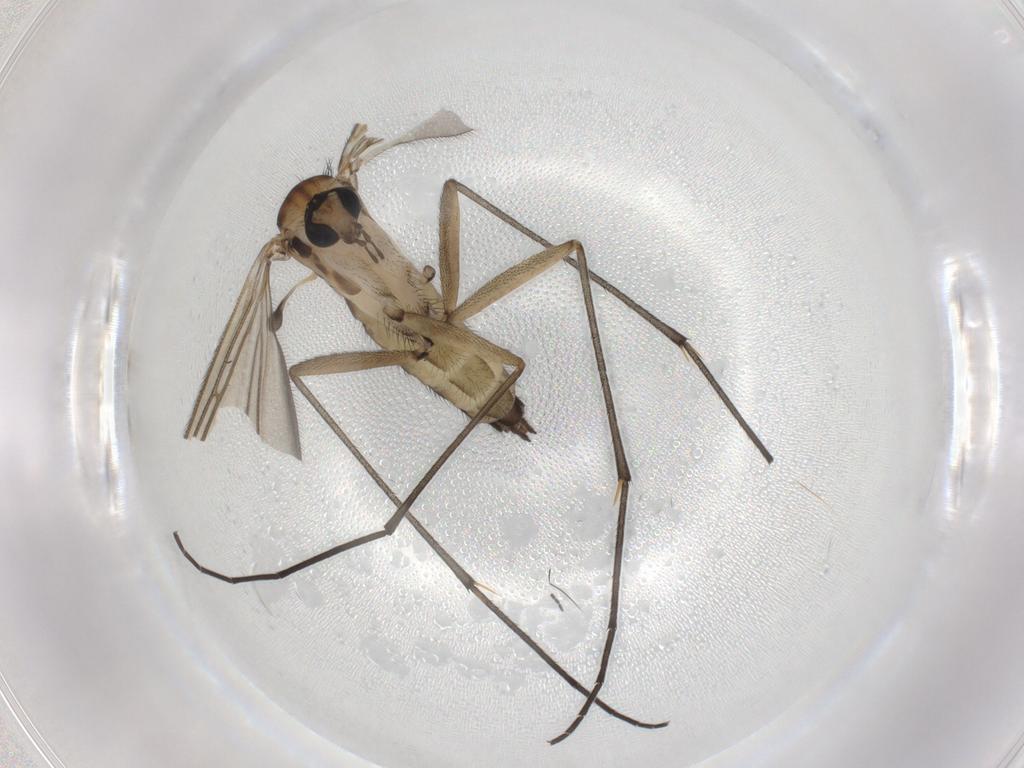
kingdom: Animalia
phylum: Arthropoda
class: Insecta
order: Diptera
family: Sciaridae
